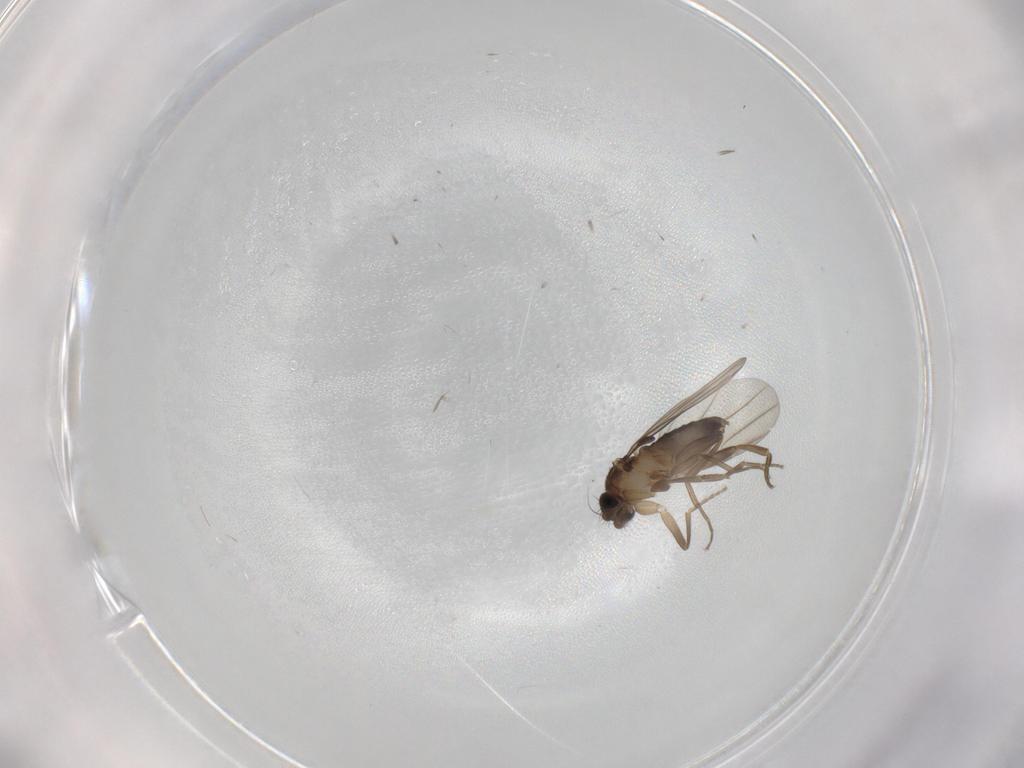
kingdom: Animalia
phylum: Arthropoda
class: Insecta
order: Diptera
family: Phoridae
